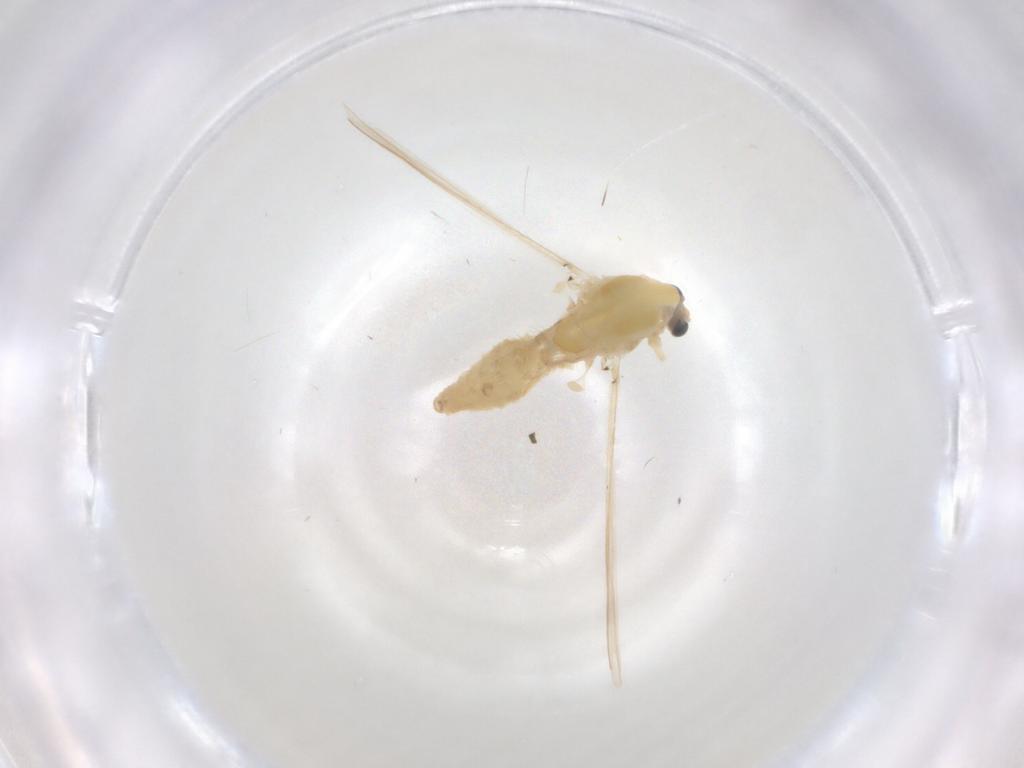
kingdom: Animalia
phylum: Arthropoda
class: Insecta
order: Diptera
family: Chironomidae
